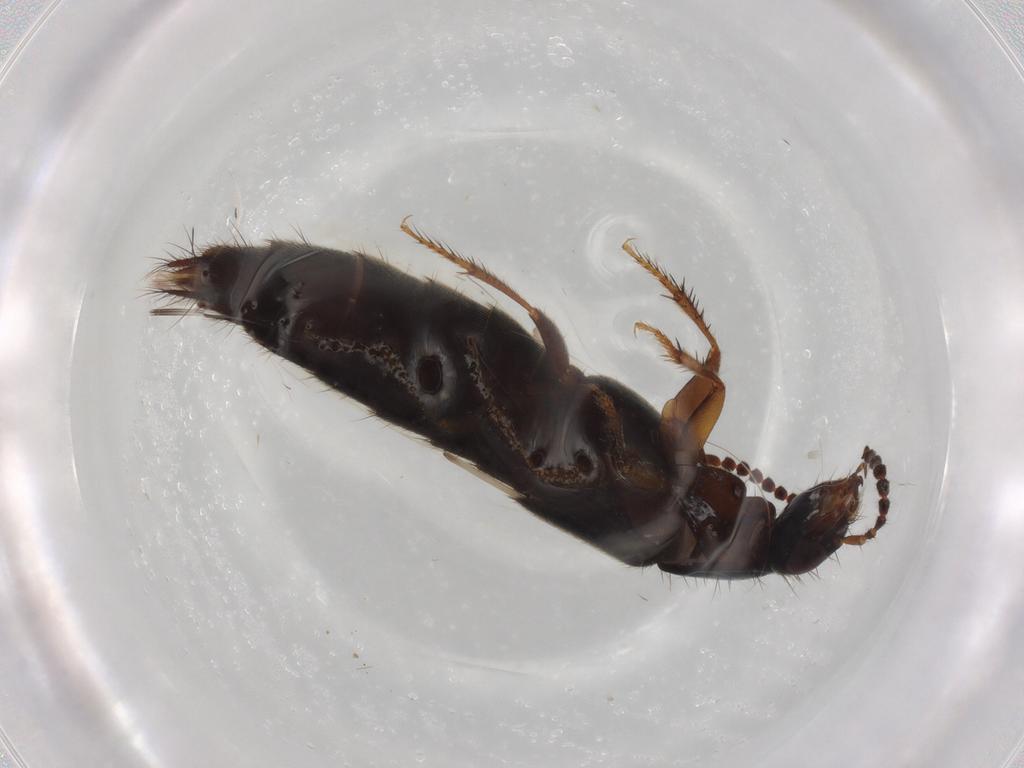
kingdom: Animalia
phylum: Arthropoda
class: Insecta
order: Coleoptera
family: Staphylinidae
